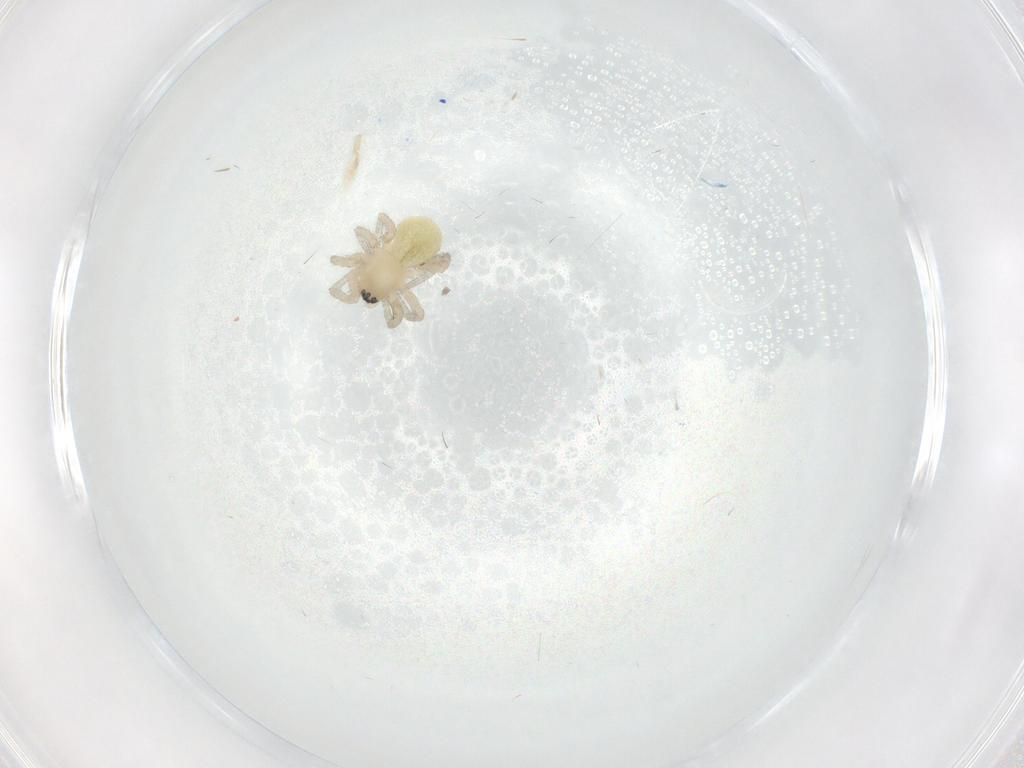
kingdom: Animalia
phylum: Arthropoda
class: Arachnida
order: Araneae
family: Linyphiidae
